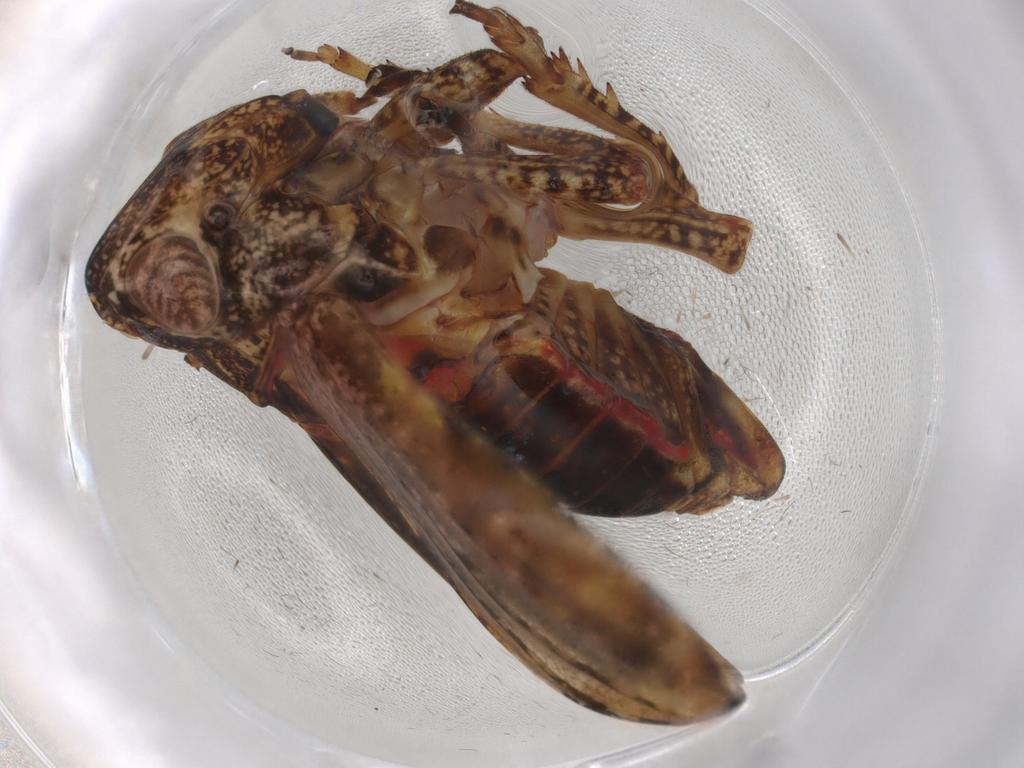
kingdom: Animalia
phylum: Arthropoda
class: Insecta
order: Hemiptera
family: Tropiduchidae
